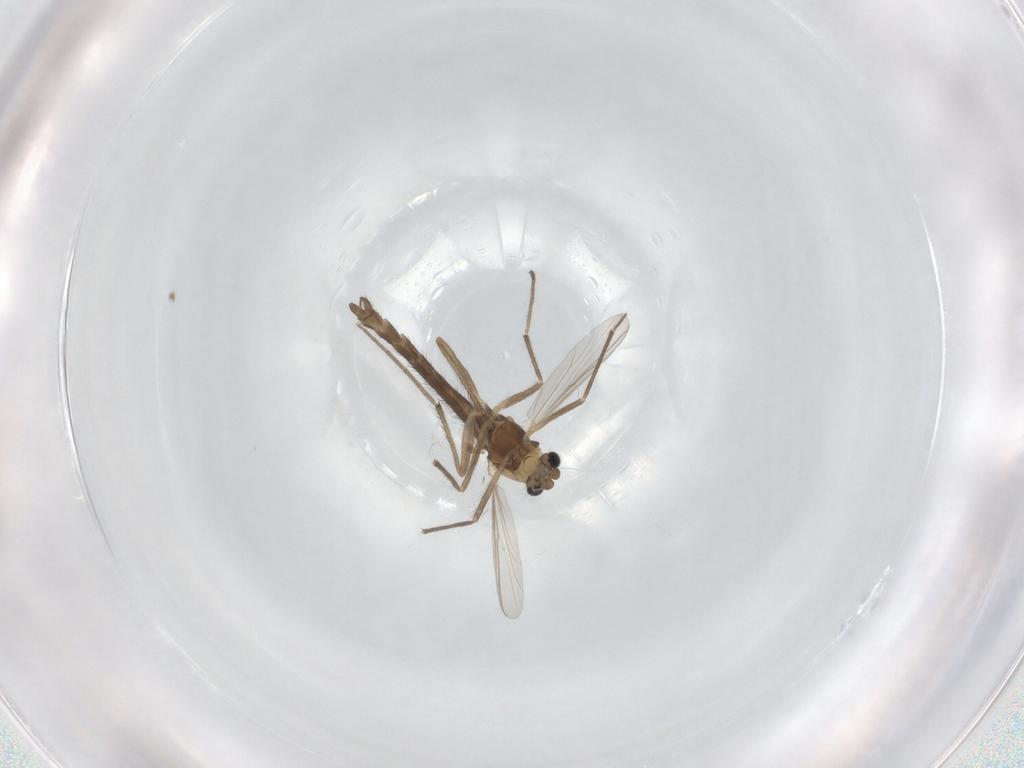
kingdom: Animalia
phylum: Arthropoda
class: Insecta
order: Diptera
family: Chironomidae
